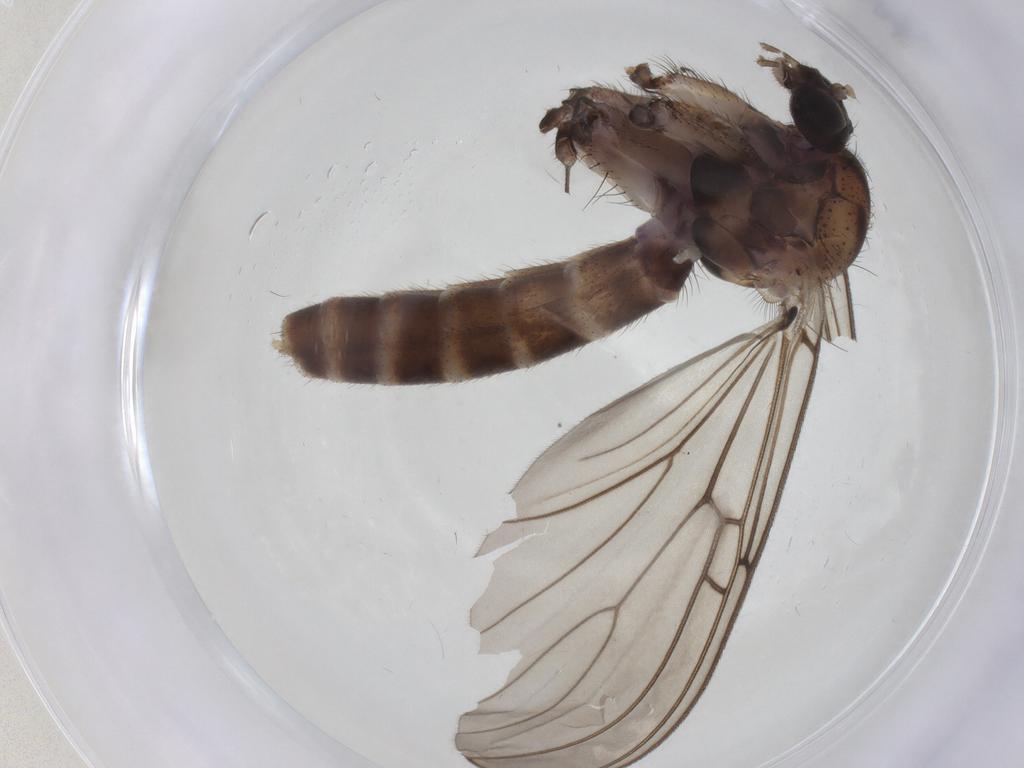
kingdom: Animalia
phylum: Arthropoda
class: Insecta
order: Diptera
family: Mycetophilidae
